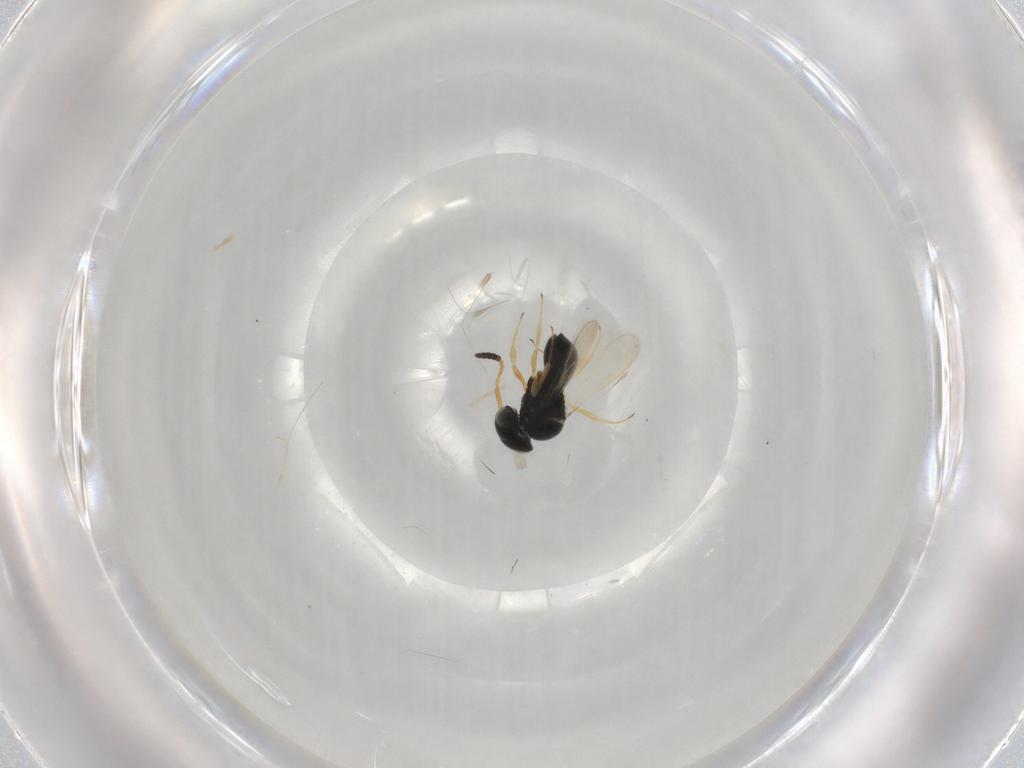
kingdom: Animalia
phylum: Arthropoda
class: Insecta
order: Hymenoptera
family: Scelionidae
